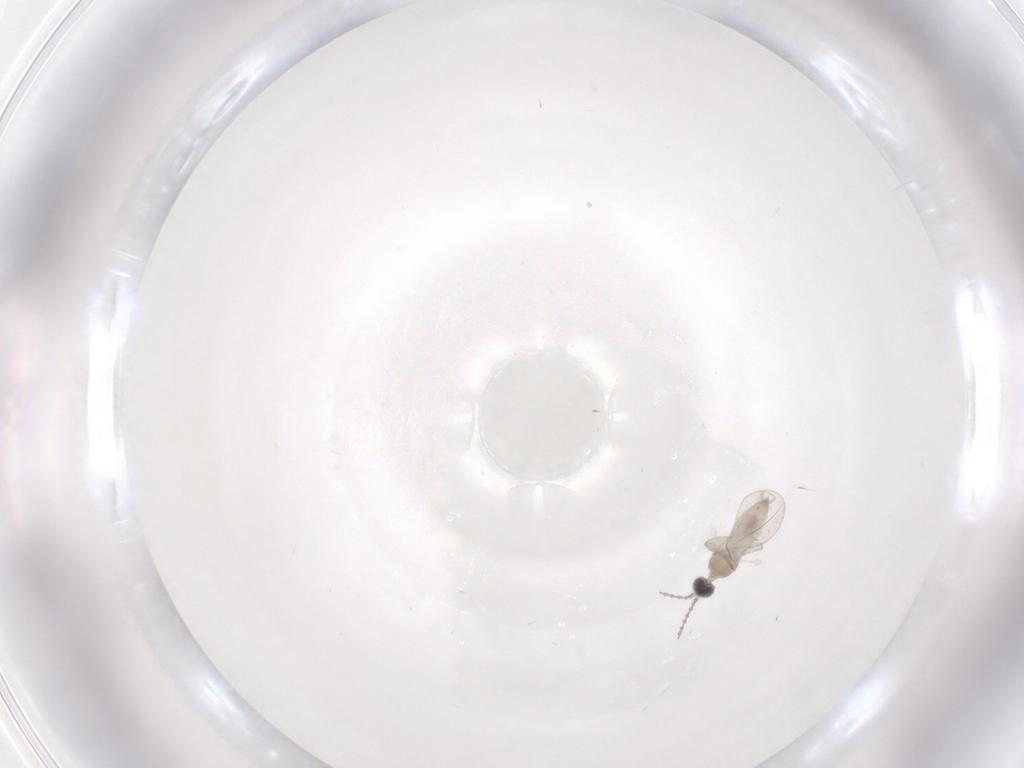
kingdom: Animalia
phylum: Arthropoda
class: Insecta
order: Diptera
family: Cecidomyiidae
